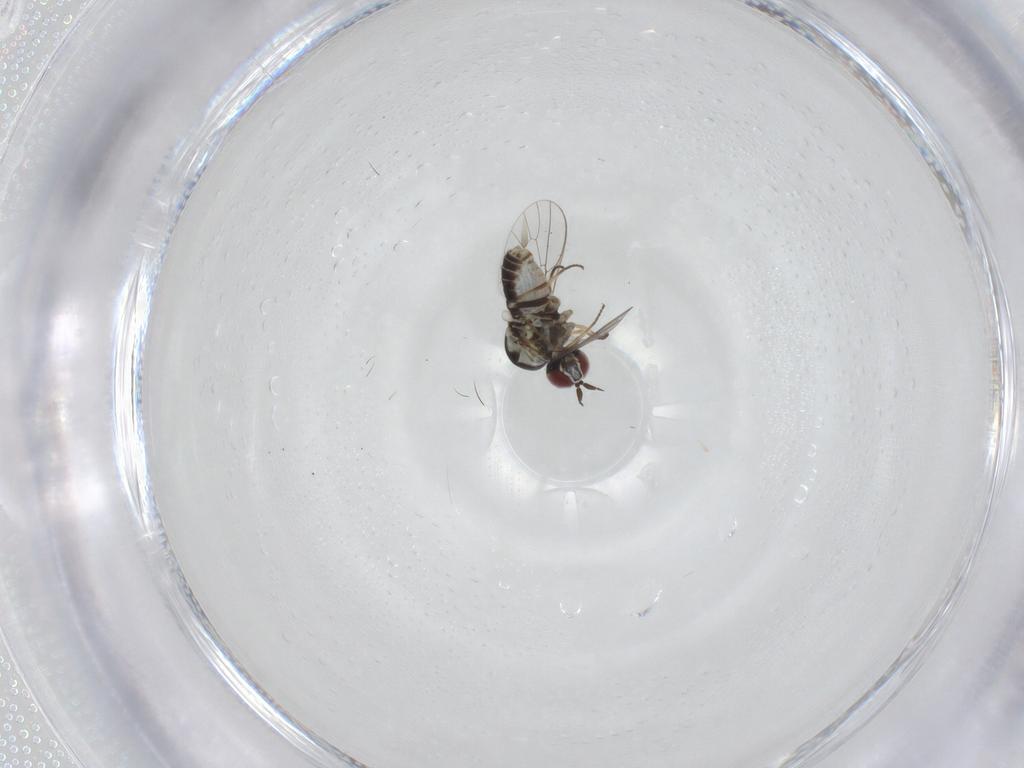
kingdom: Animalia
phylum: Arthropoda
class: Insecta
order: Diptera
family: Mythicomyiidae
